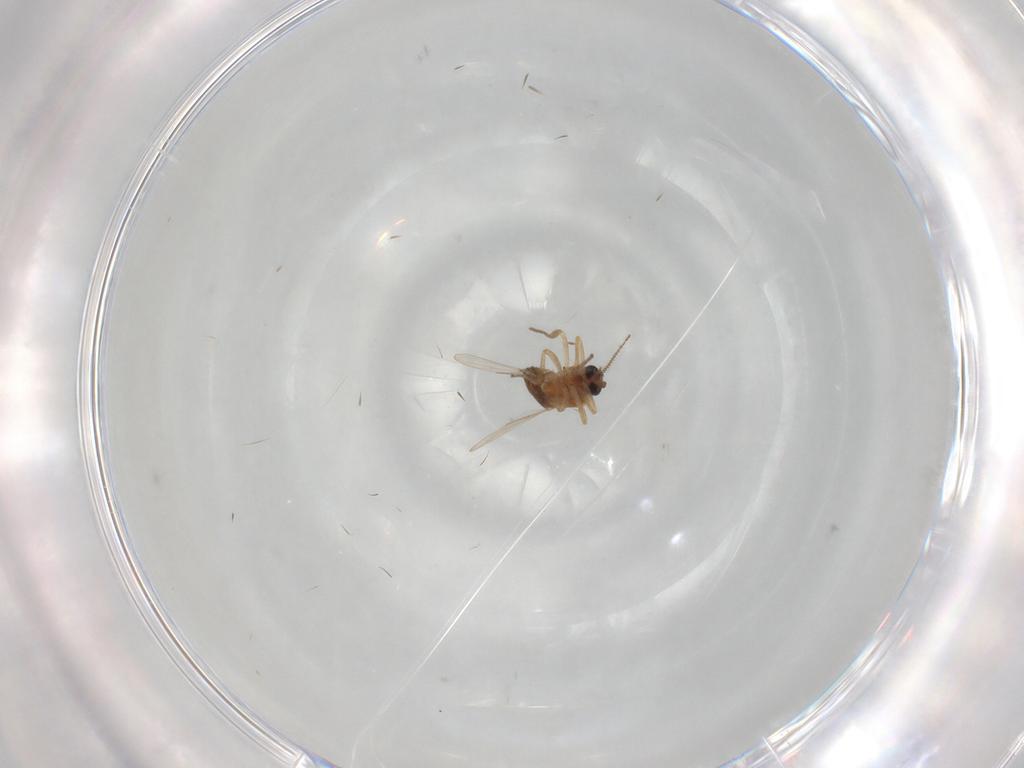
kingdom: Animalia
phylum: Arthropoda
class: Insecta
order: Diptera
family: Ceratopogonidae
